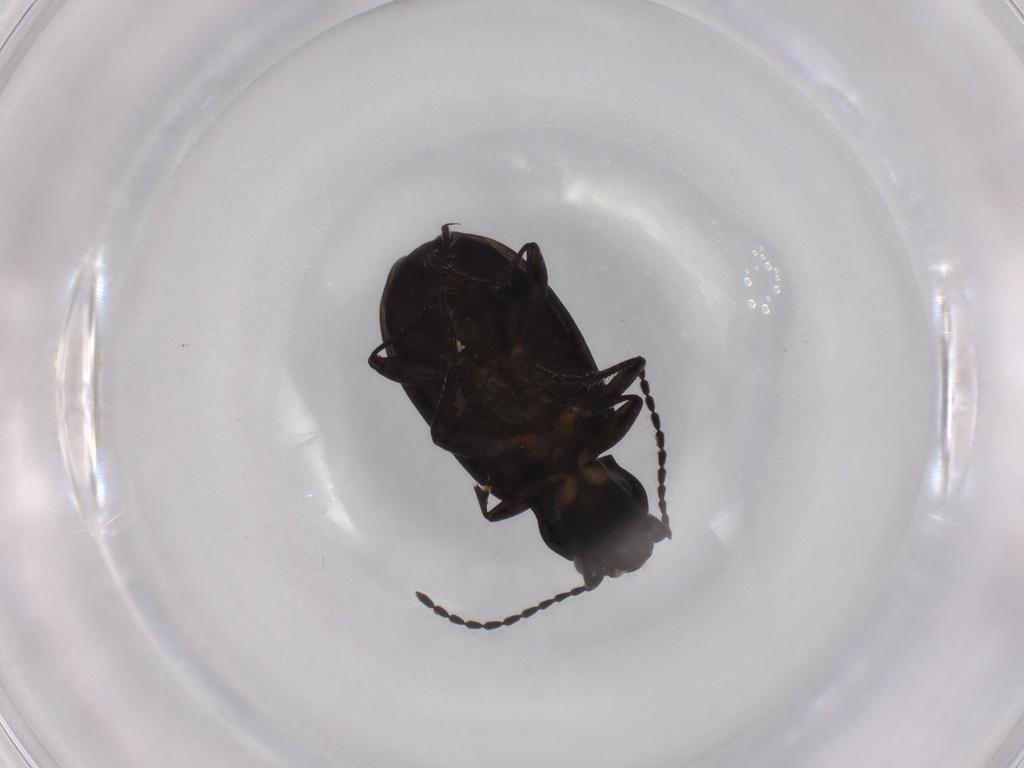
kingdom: Animalia
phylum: Arthropoda
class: Insecta
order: Coleoptera
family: Carabidae
